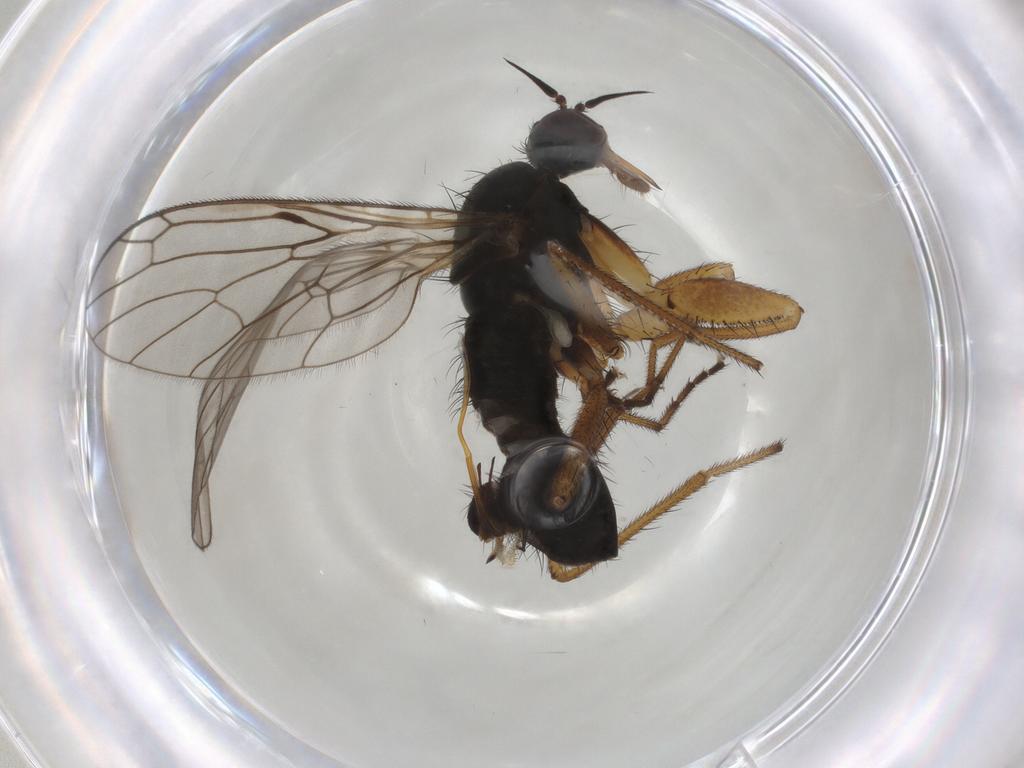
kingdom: Animalia
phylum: Arthropoda
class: Insecta
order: Diptera
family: Empididae
